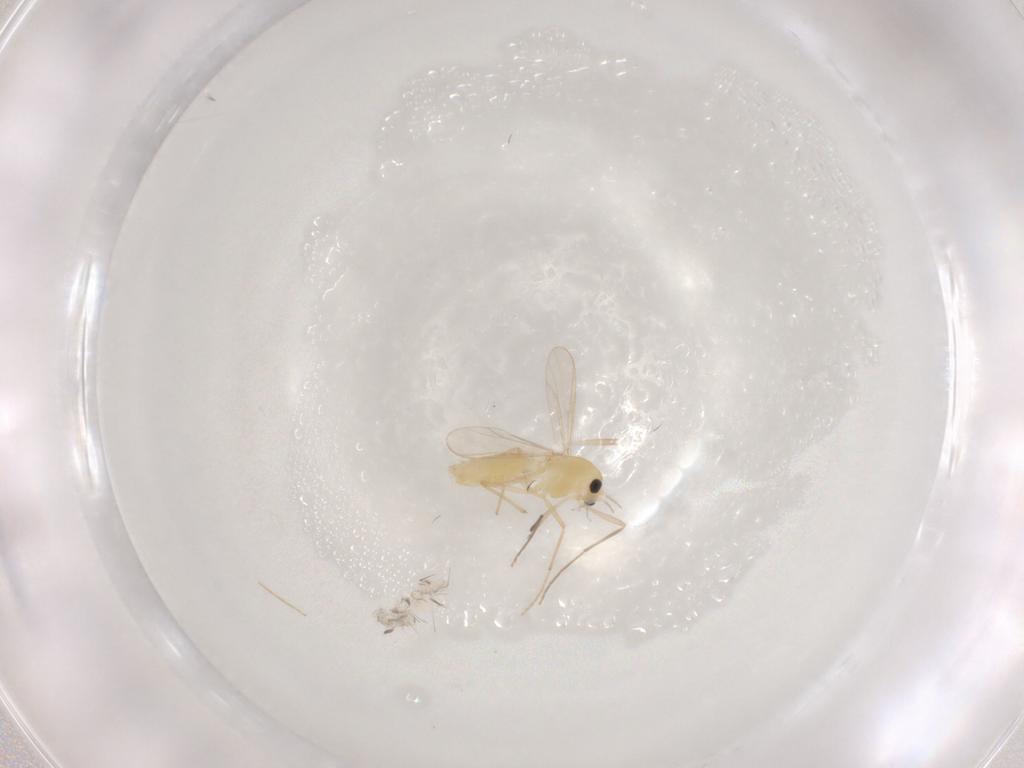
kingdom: Animalia
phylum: Arthropoda
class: Insecta
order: Diptera
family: Chironomidae
